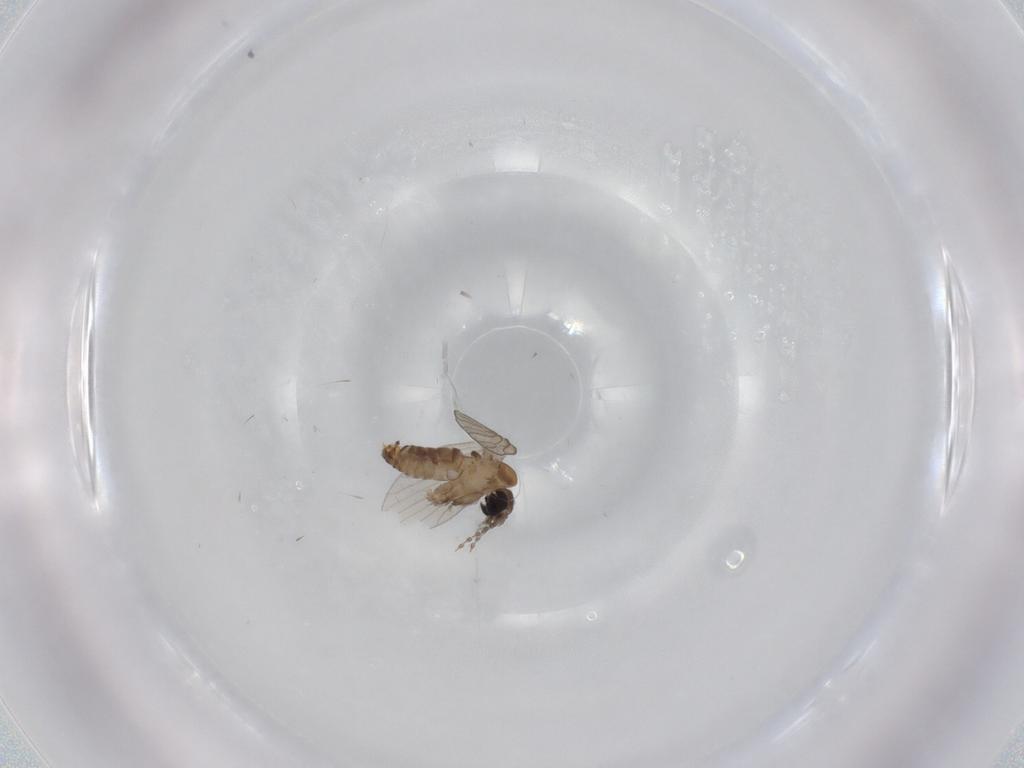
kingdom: Animalia
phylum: Arthropoda
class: Insecta
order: Diptera
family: Psychodidae
